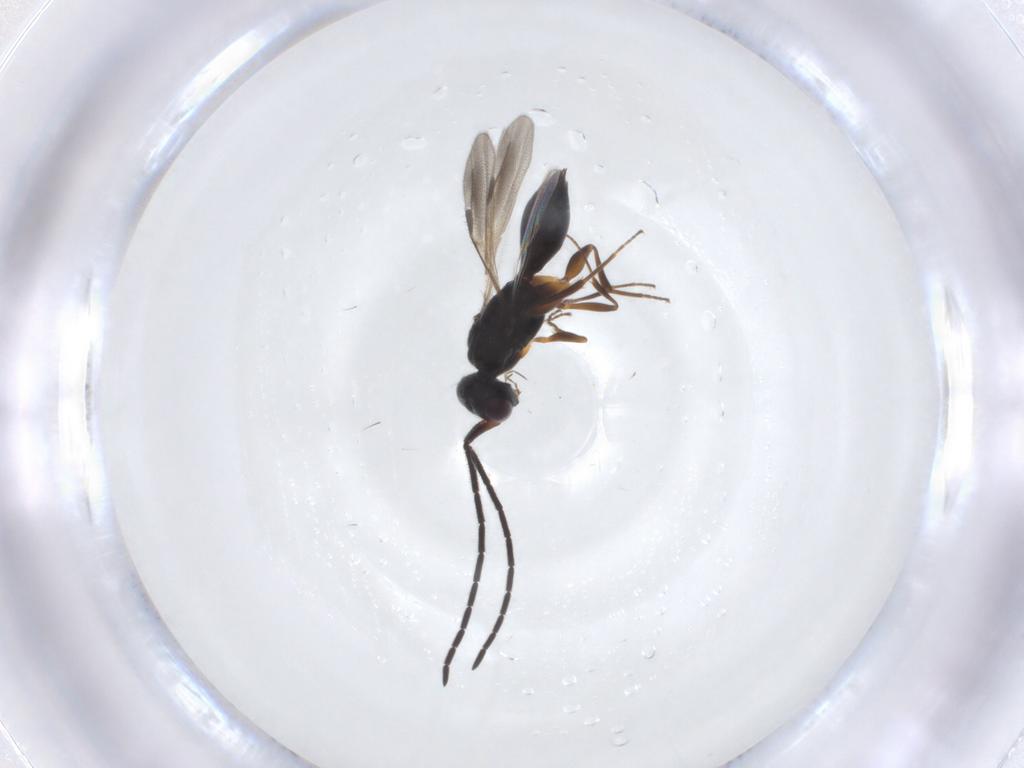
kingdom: Animalia
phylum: Arthropoda
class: Insecta
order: Hymenoptera
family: Megaspilidae
